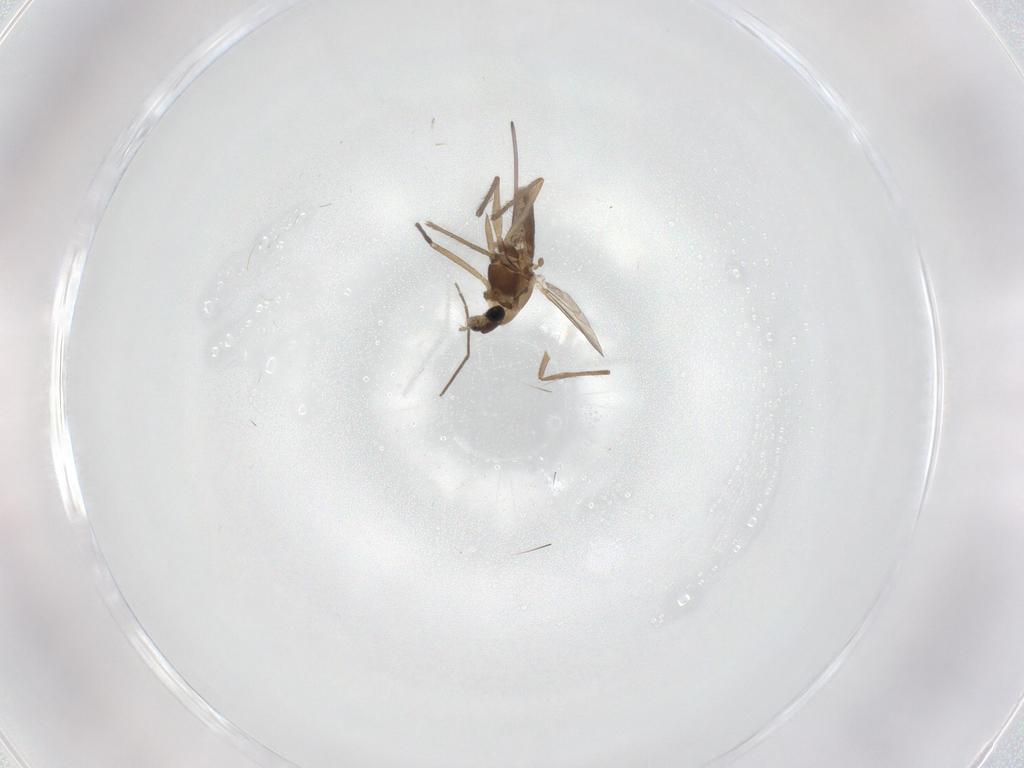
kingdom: Animalia
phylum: Arthropoda
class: Insecta
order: Diptera
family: Chironomidae
